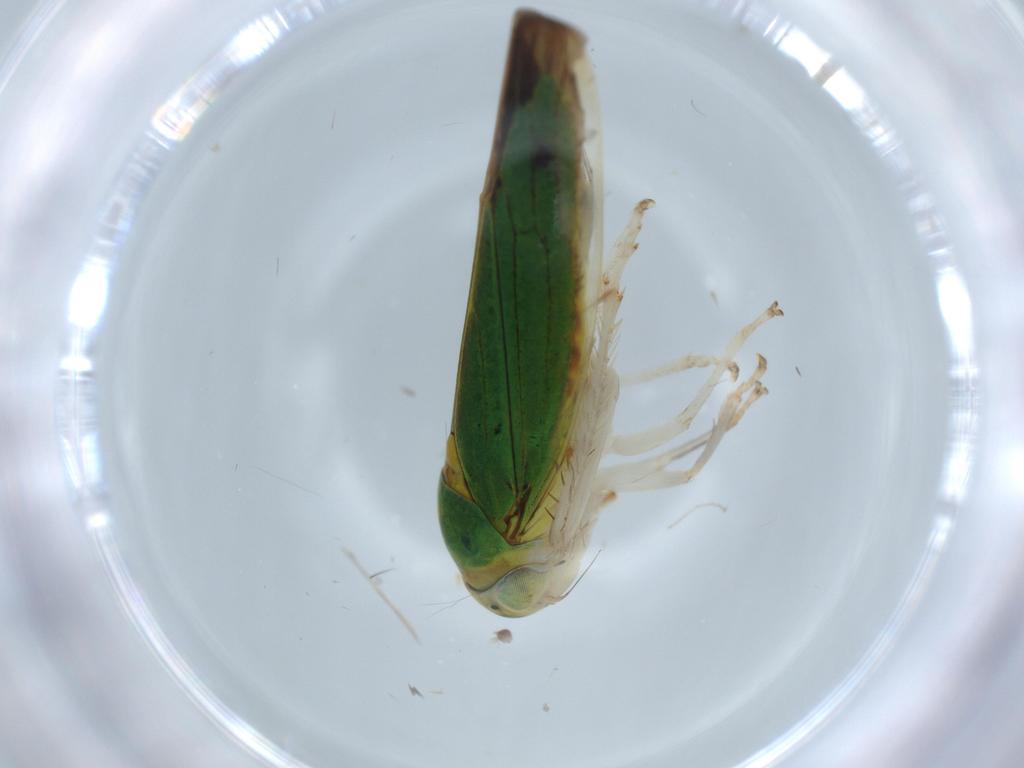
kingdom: Animalia
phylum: Arthropoda
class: Insecta
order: Hemiptera
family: Cicadellidae
